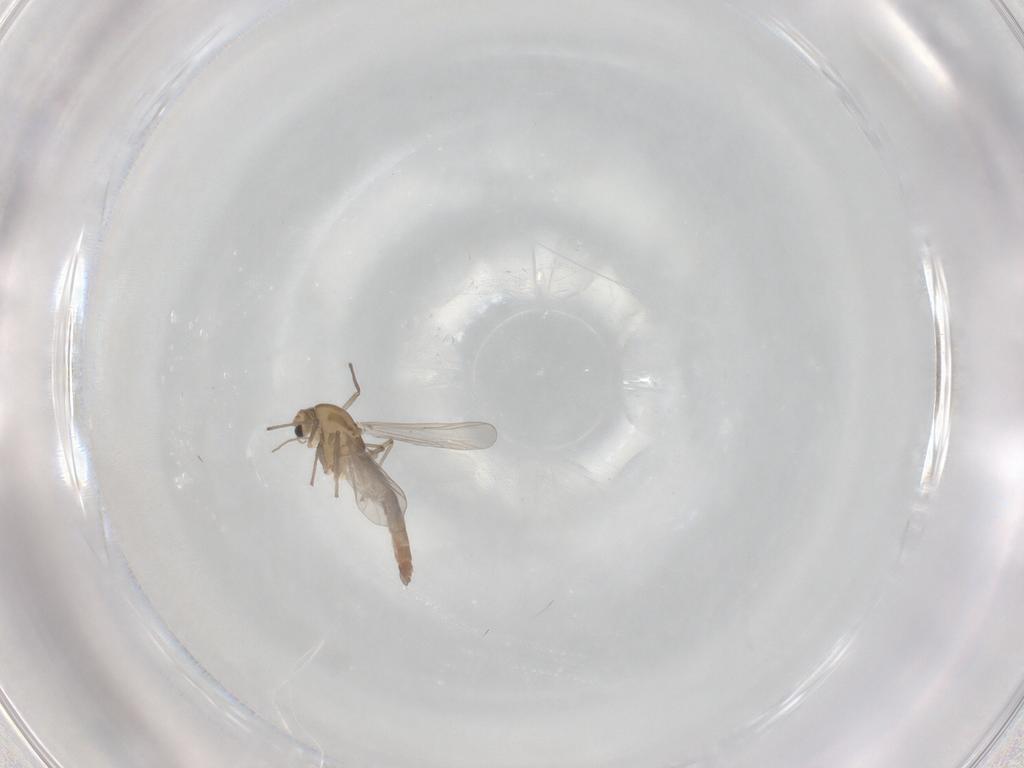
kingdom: Animalia
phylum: Arthropoda
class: Insecta
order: Diptera
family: Chironomidae
